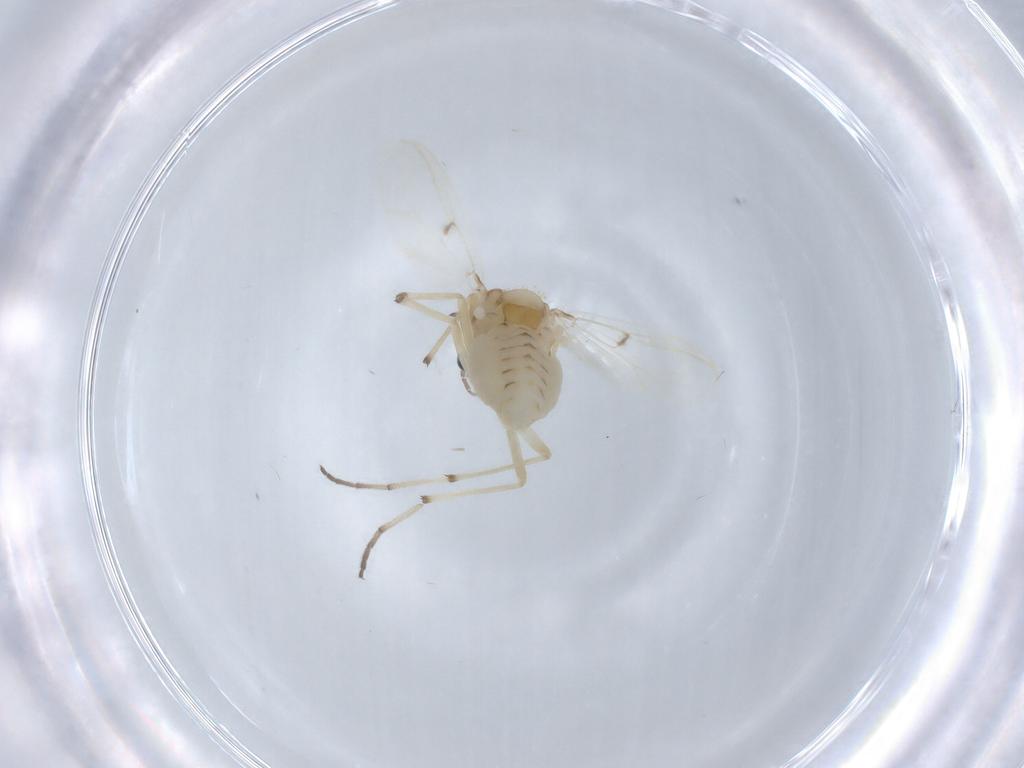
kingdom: Animalia
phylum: Arthropoda
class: Insecta
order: Diptera
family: Chironomidae
